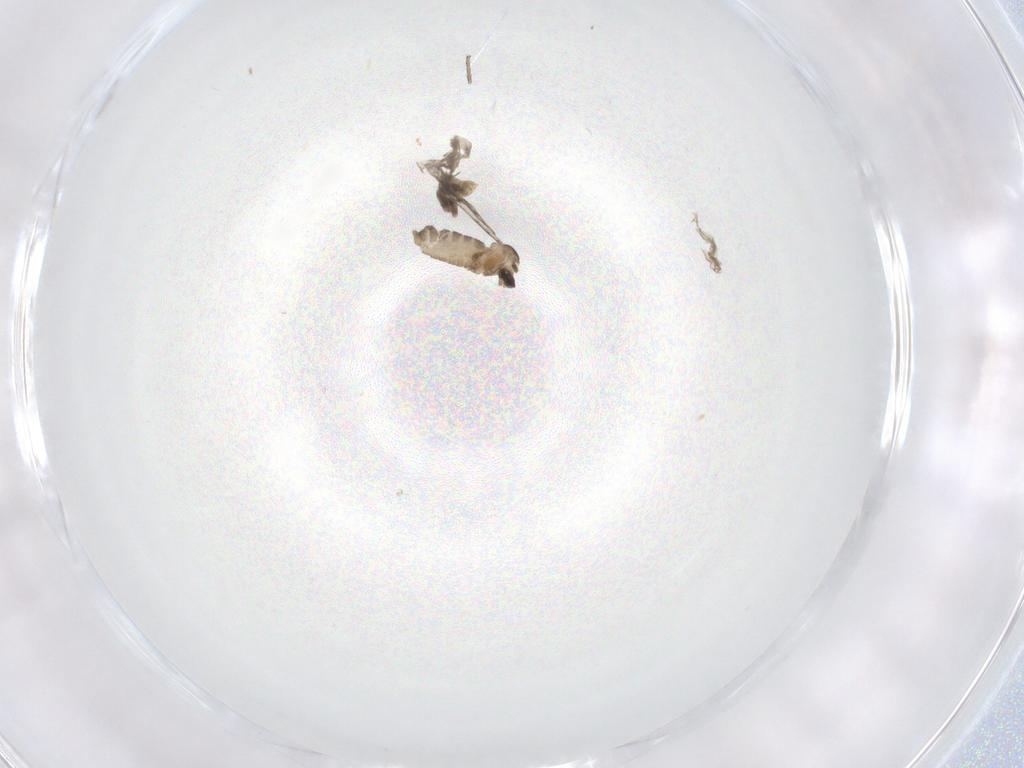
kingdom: Animalia
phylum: Arthropoda
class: Insecta
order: Diptera
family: Cecidomyiidae
